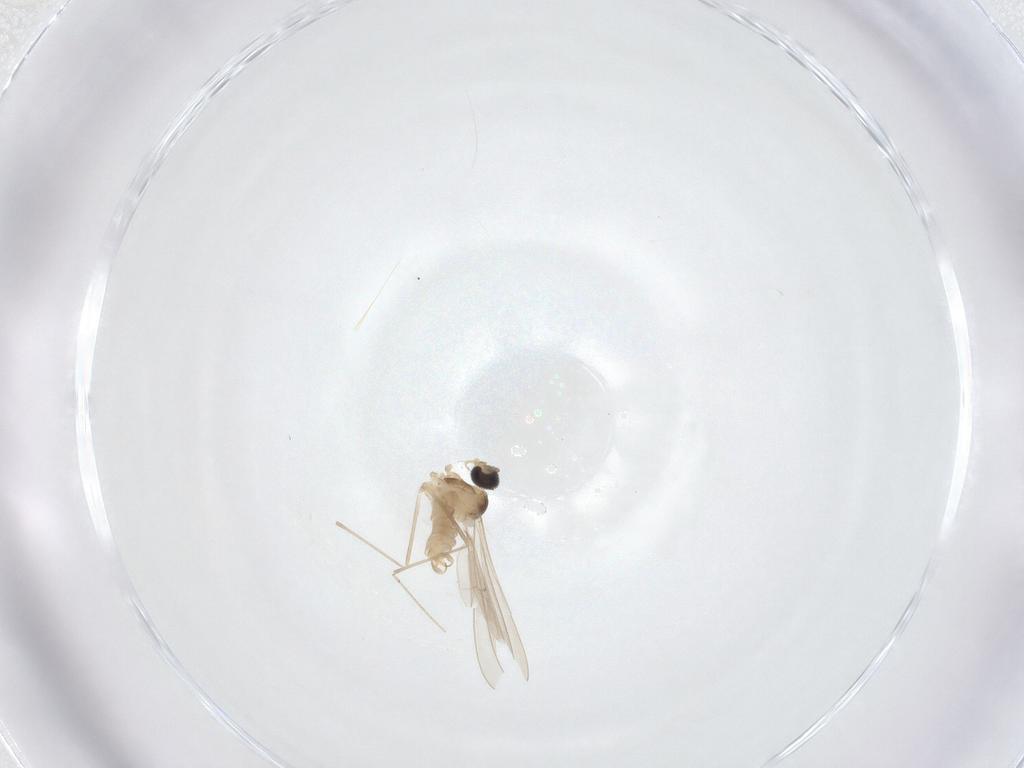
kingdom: Animalia
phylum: Arthropoda
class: Insecta
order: Diptera
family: Cecidomyiidae
